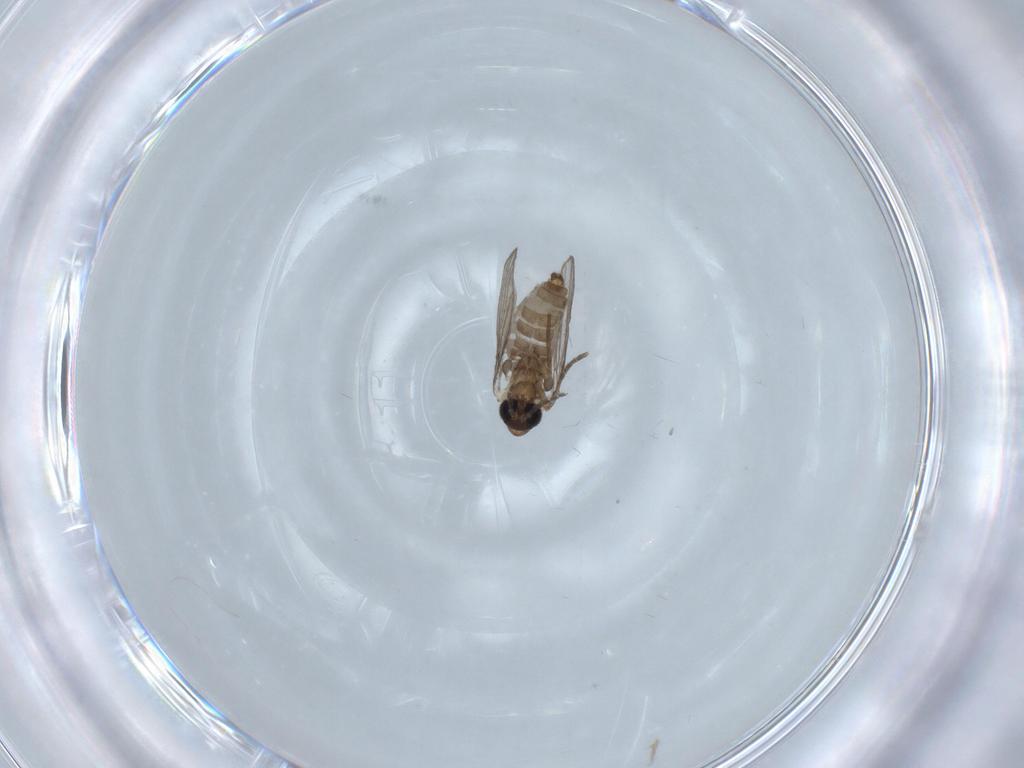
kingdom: Animalia
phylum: Arthropoda
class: Insecta
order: Diptera
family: Psychodidae
